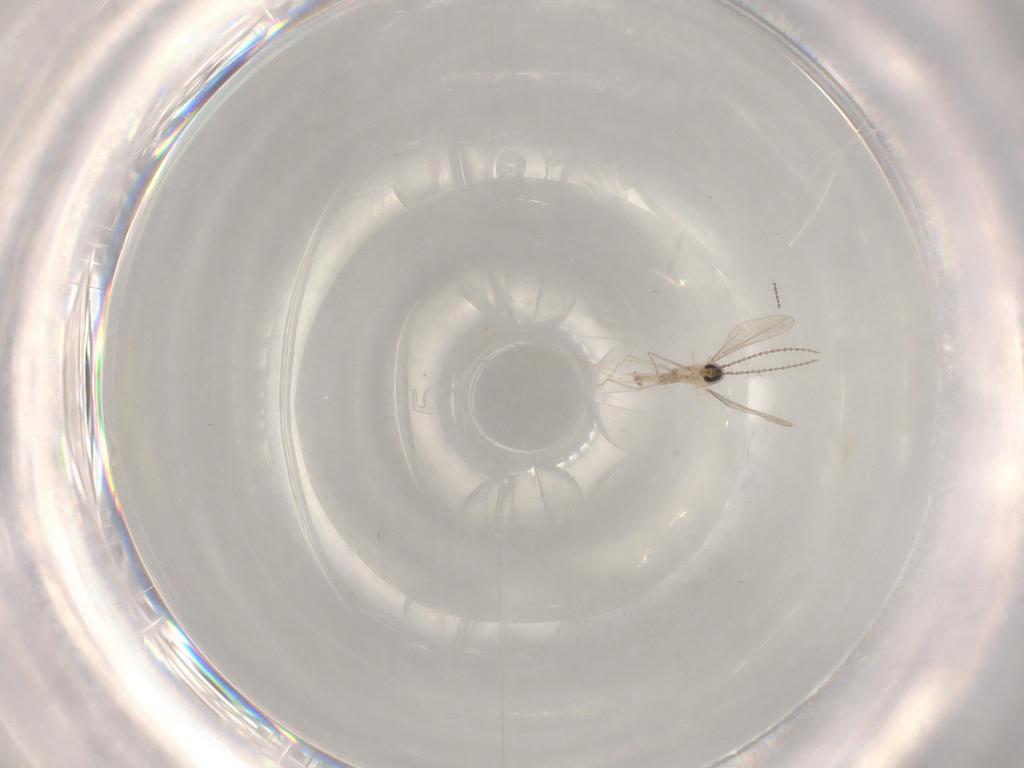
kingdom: Animalia
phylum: Arthropoda
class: Insecta
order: Diptera
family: Cecidomyiidae
